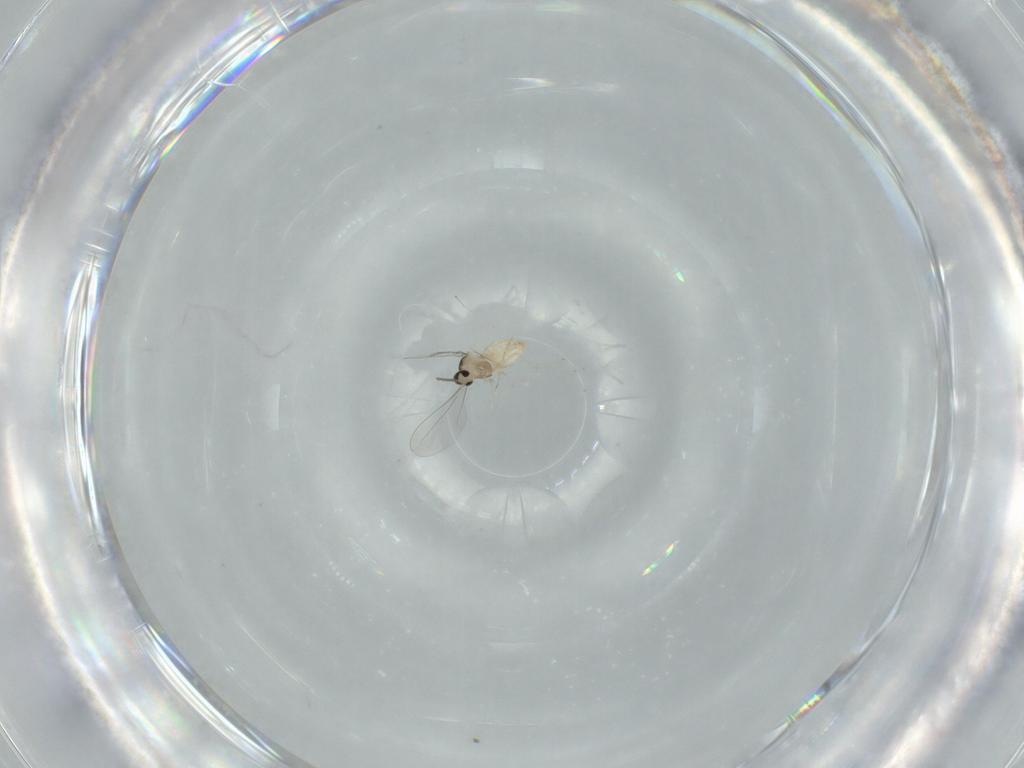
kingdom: Animalia
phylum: Arthropoda
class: Insecta
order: Diptera
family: Cecidomyiidae
